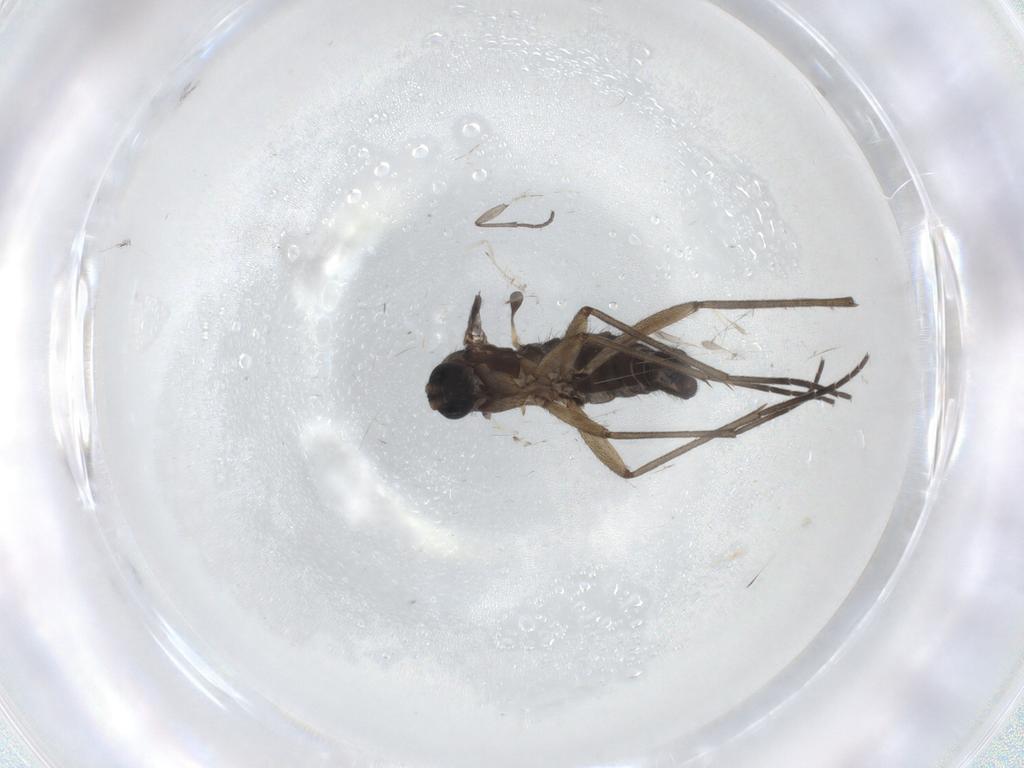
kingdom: Animalia
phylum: Arthropoda
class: Insecta
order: Diptera
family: Sciaridae
